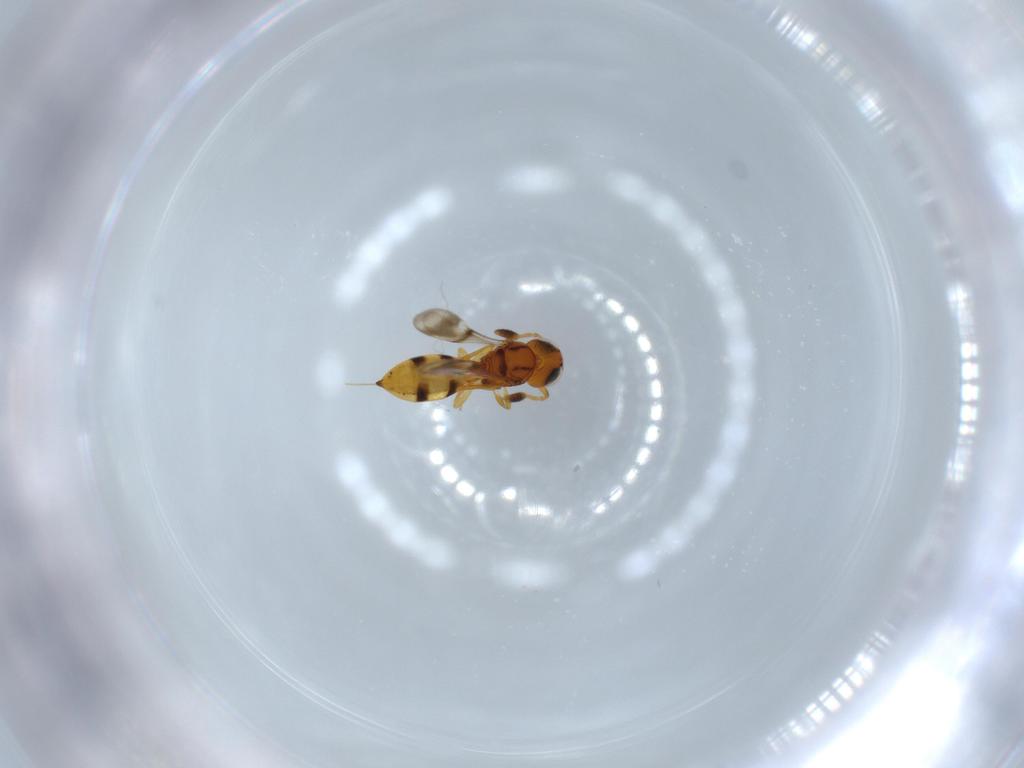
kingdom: Animalia
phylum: Arthropoda
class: Insecta
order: Hymenoptera
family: Scelionidae
